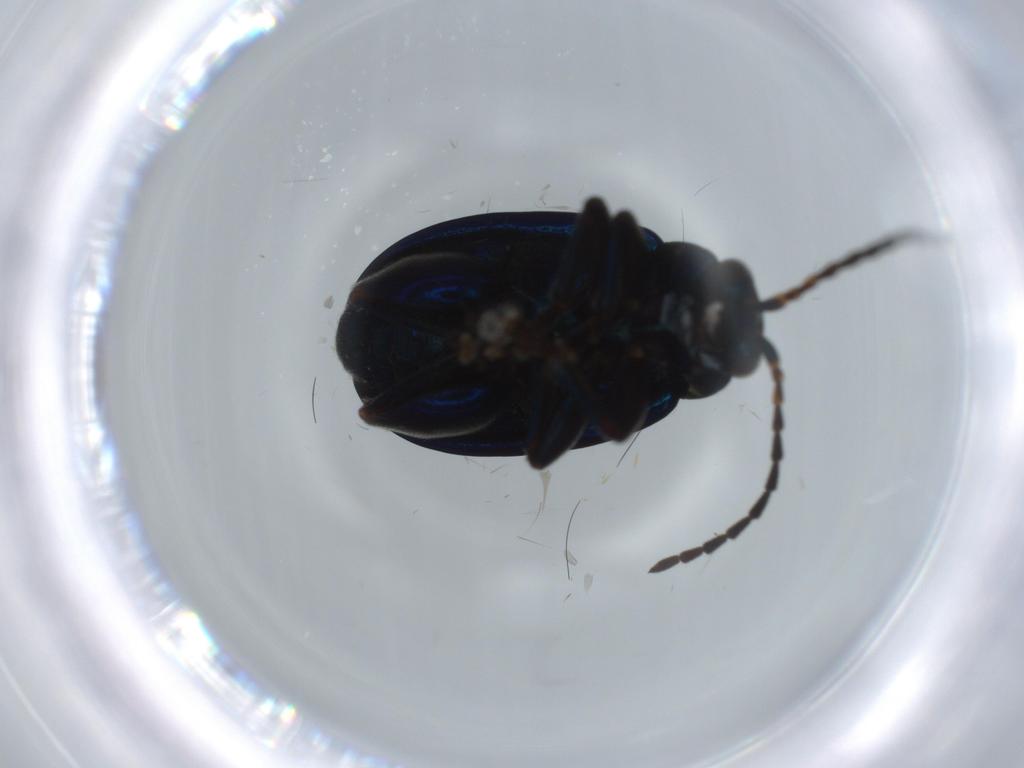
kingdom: Animalia
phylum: Arthropoda
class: Insecta
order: Coleoptera
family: Chrysomelidae
